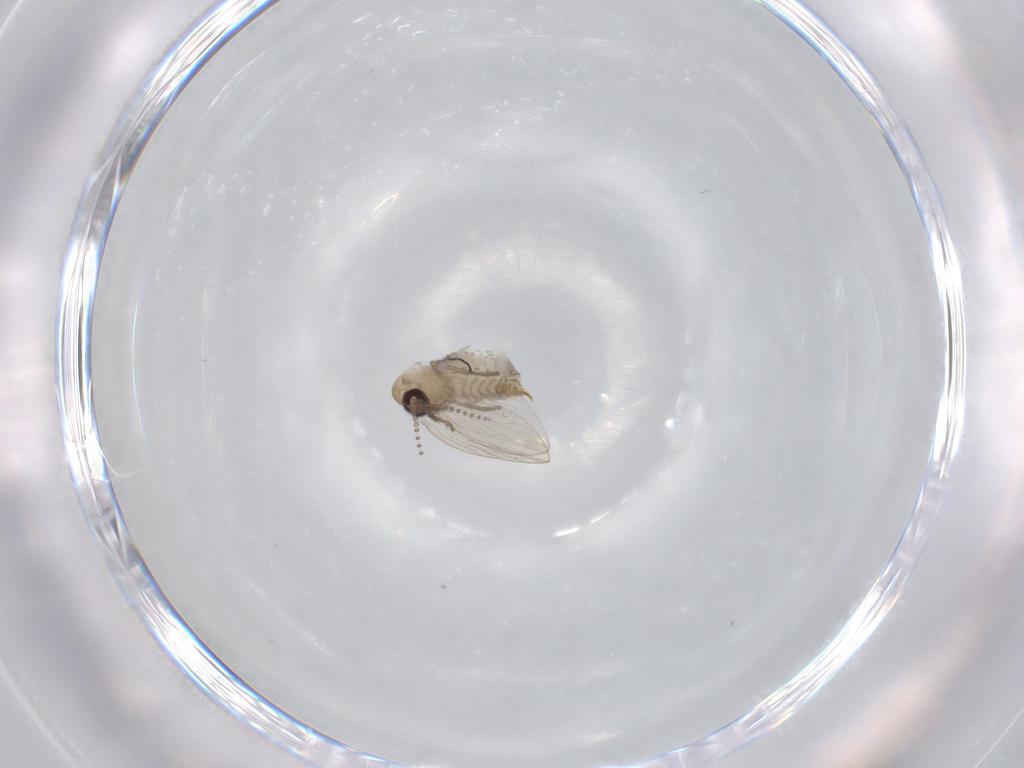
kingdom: Animalia
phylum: Arthropoda
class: Insecta
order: Diptera
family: Psychodidae
